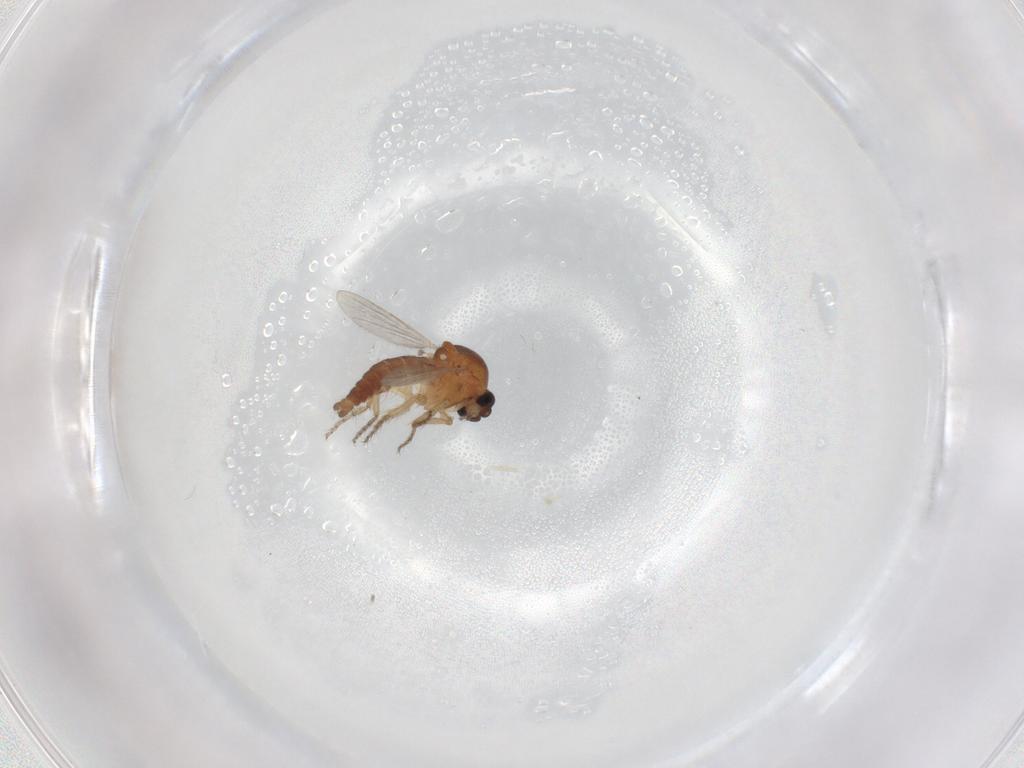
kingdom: Animalia
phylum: Arthropoda
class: Insecta
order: Diptera
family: Ceratopogonidae
